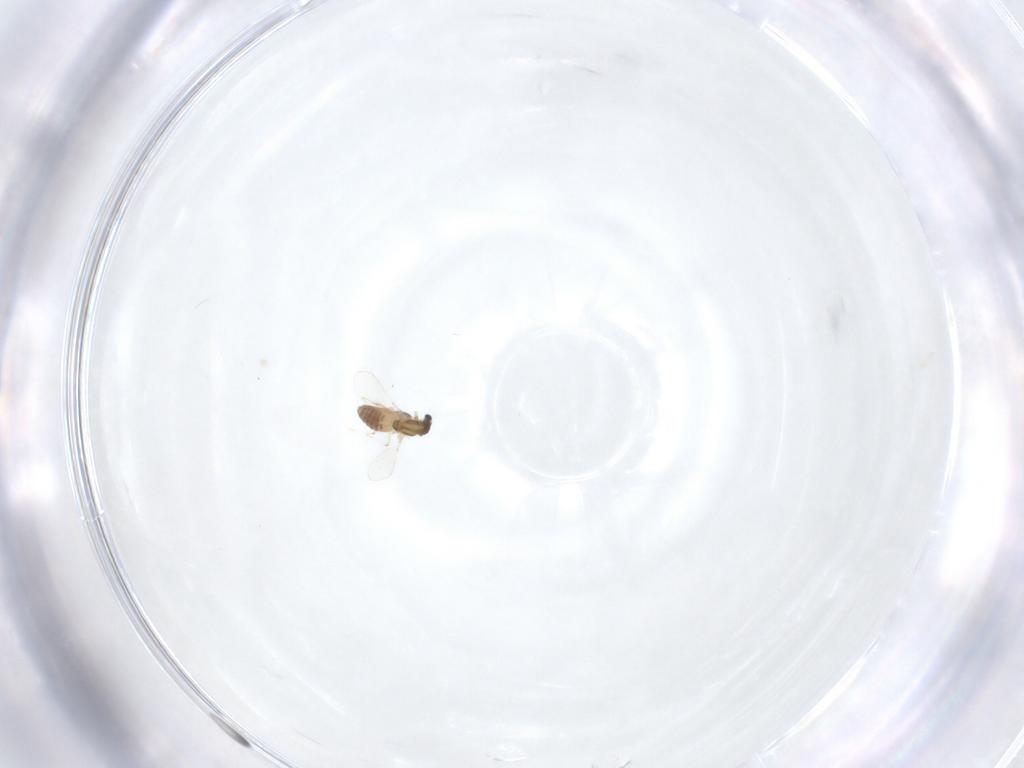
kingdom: Animalia
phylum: Arthropoda
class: Insecta
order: Diptera
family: Chironomidae
